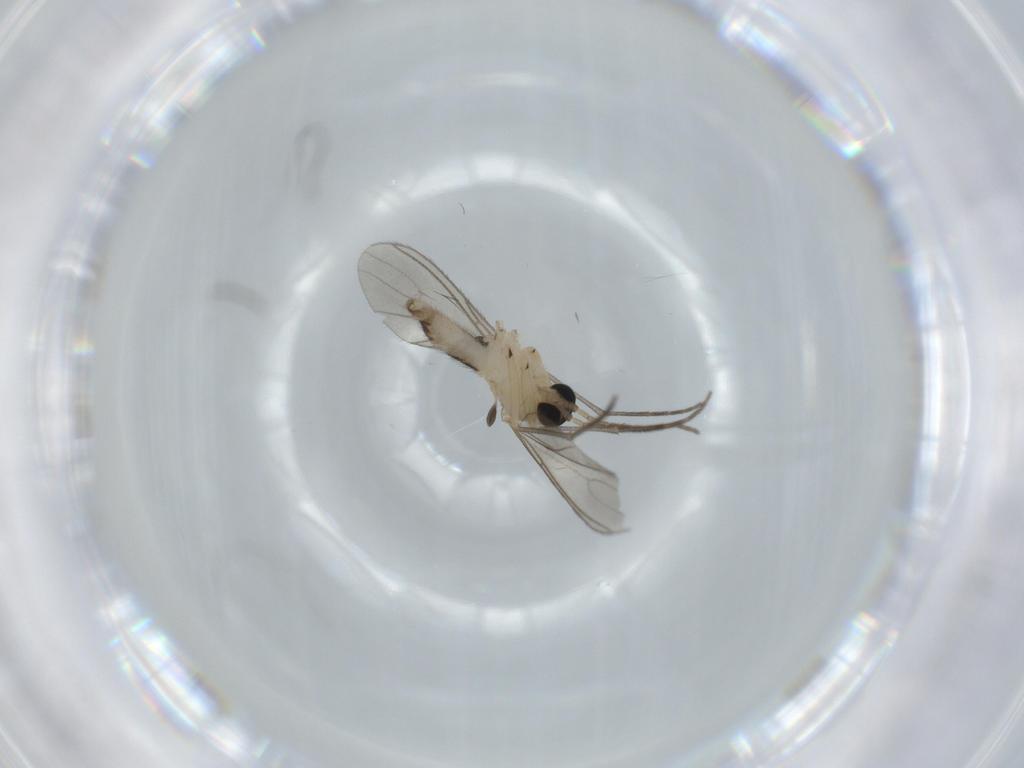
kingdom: Animalia
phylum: Arthropoda
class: Insecta
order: Diptera
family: Sciaridae
